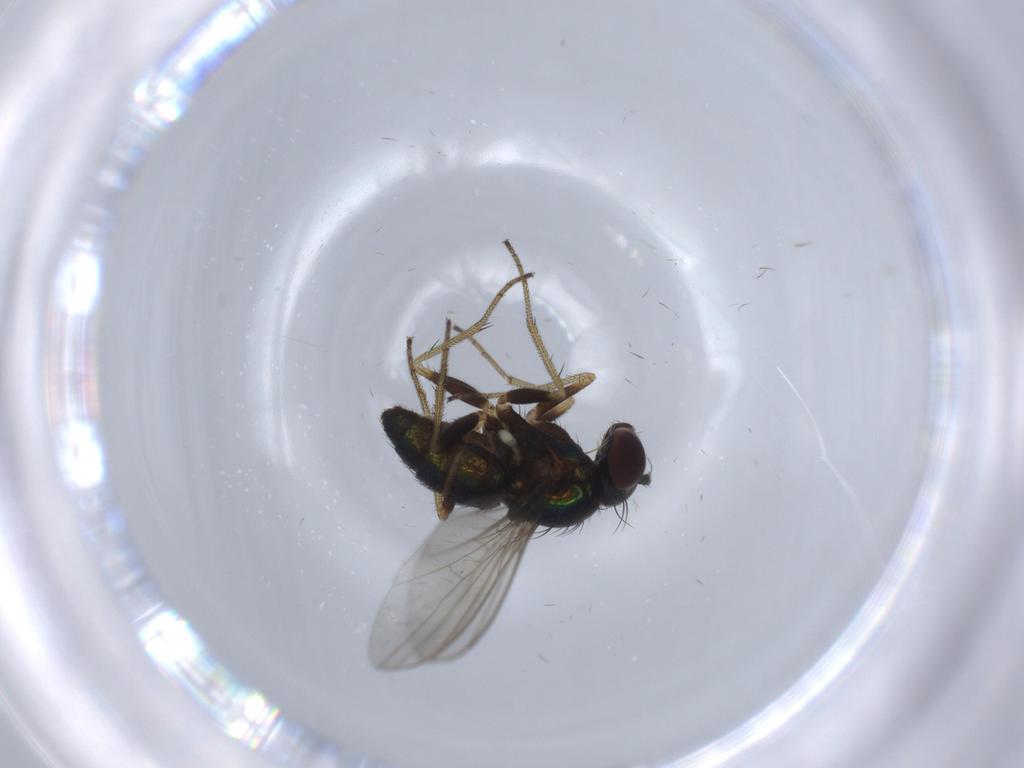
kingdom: Animalia
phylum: Arthropoda
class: Insecta
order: Diptera
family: Dolichopodidae
